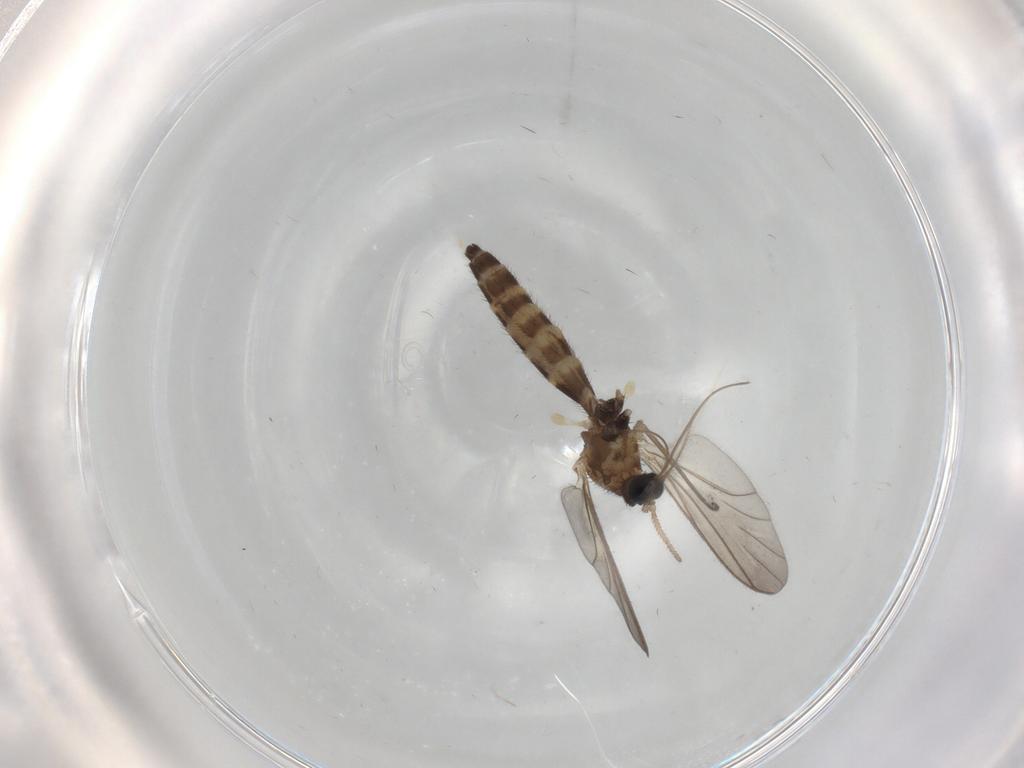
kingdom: Animalia
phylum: Arthropoda
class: Insecta
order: Diptera
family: Keroplatidae
